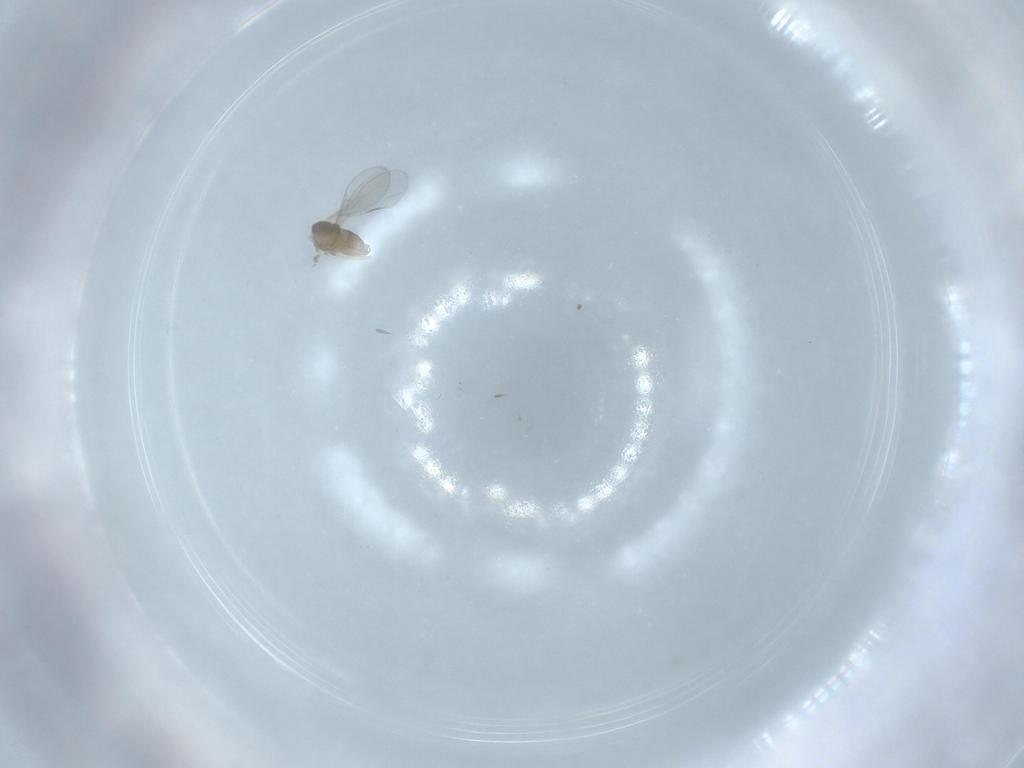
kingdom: Animalia
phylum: Arthropoda
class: Insecta
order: Diptera
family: Cecidomyiidae
